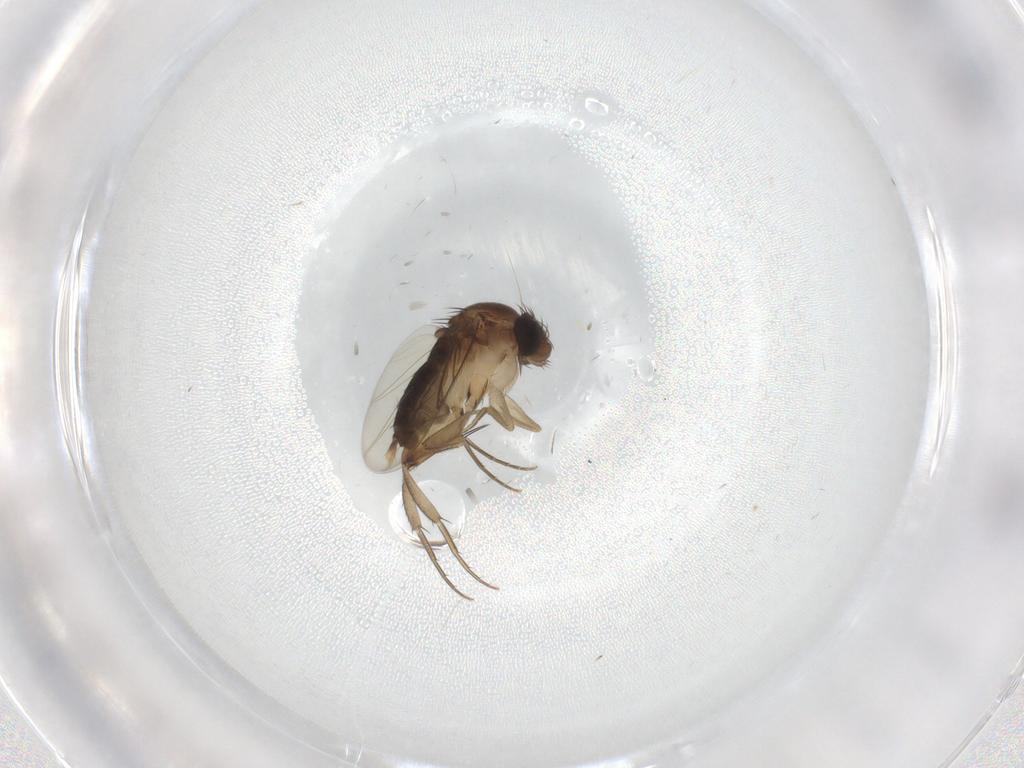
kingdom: Animalia
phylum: Arthropoda
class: Insecta
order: Diptera
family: Phoridae
